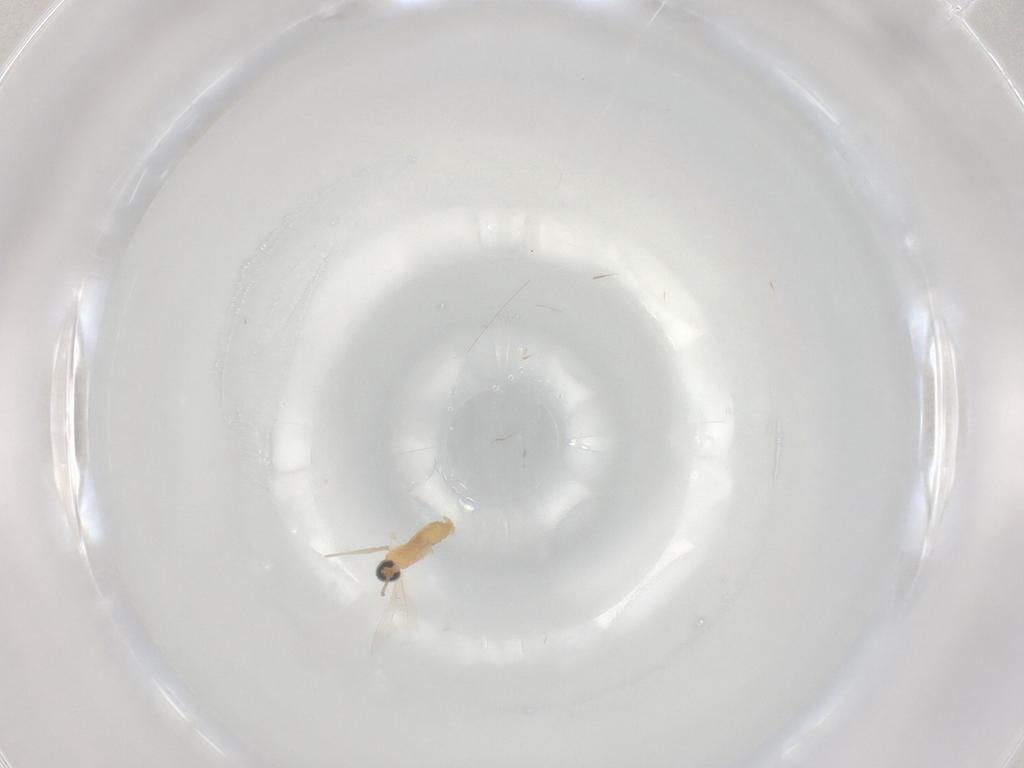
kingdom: Animalia
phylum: Arthropoda
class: Insecta
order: Diptera
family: Cecidomyiidae
